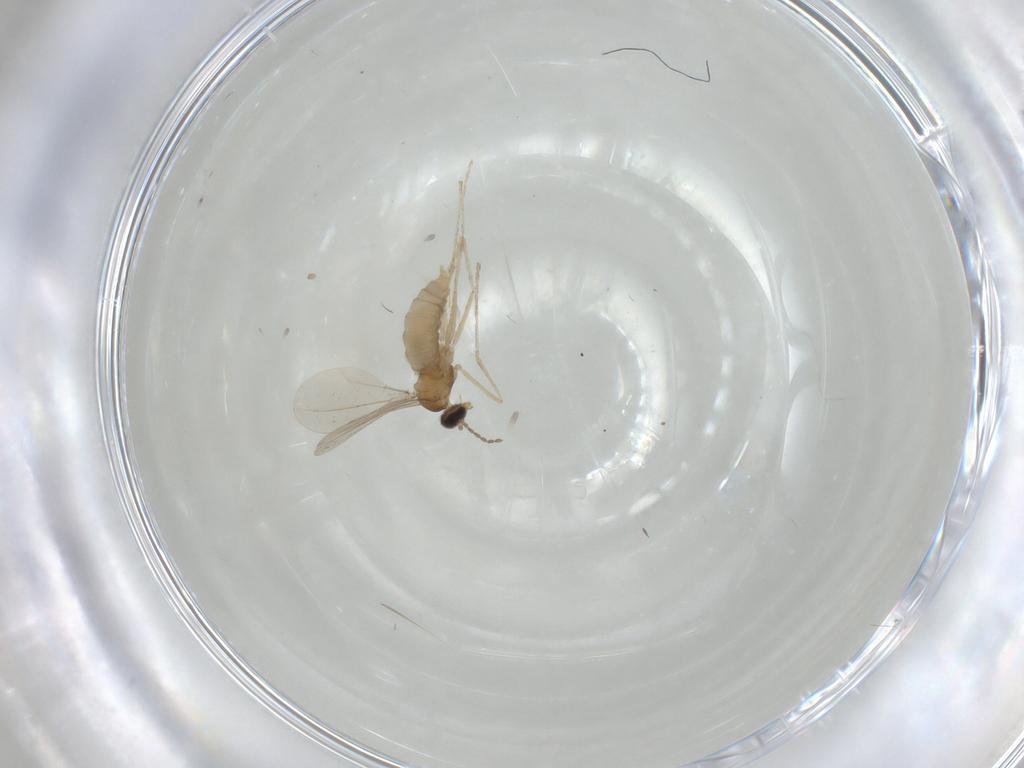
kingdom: Animalia
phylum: Arthropoda
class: Insecta
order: Diptera
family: Cecidomyiidae
